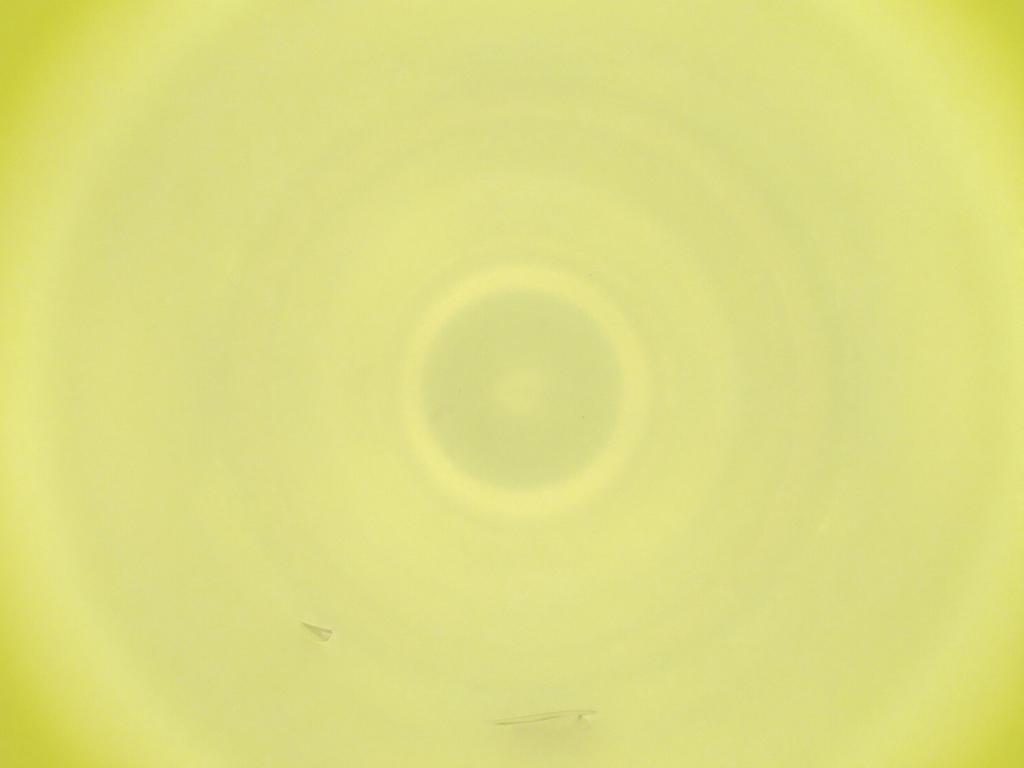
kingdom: Animalia
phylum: Arthropoda
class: Insecta
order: Diptera
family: Cecidomyiidae
